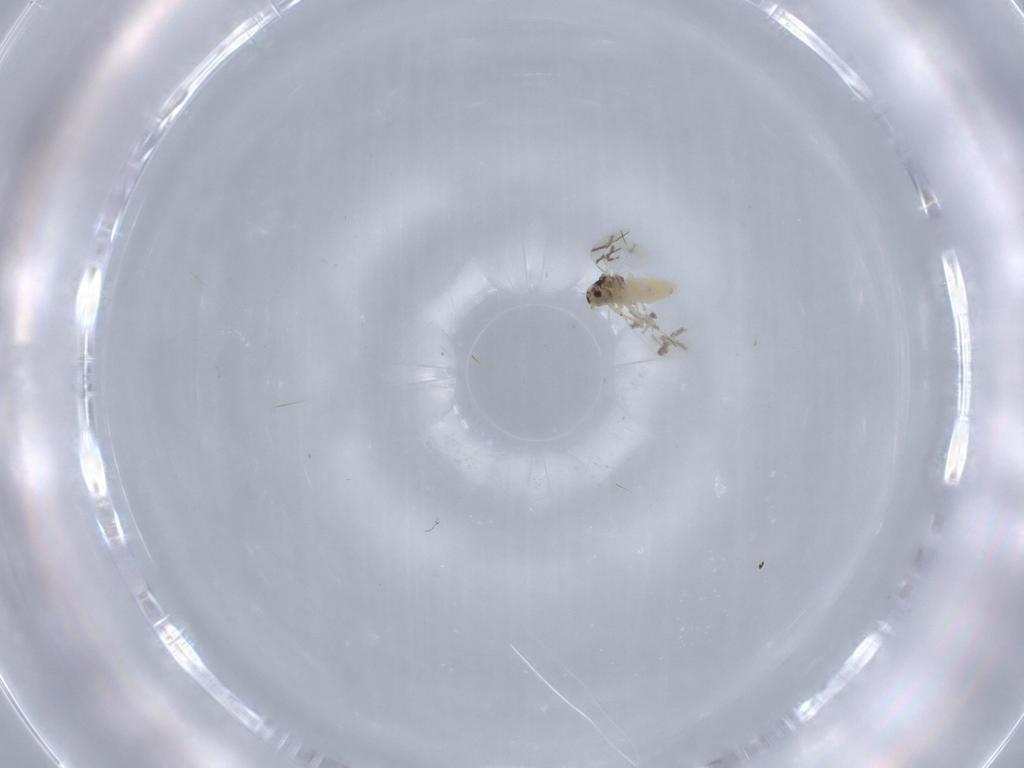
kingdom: Animalia
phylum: Arthropoda
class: Insecta
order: Hemiptera
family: Aleyrodidae
